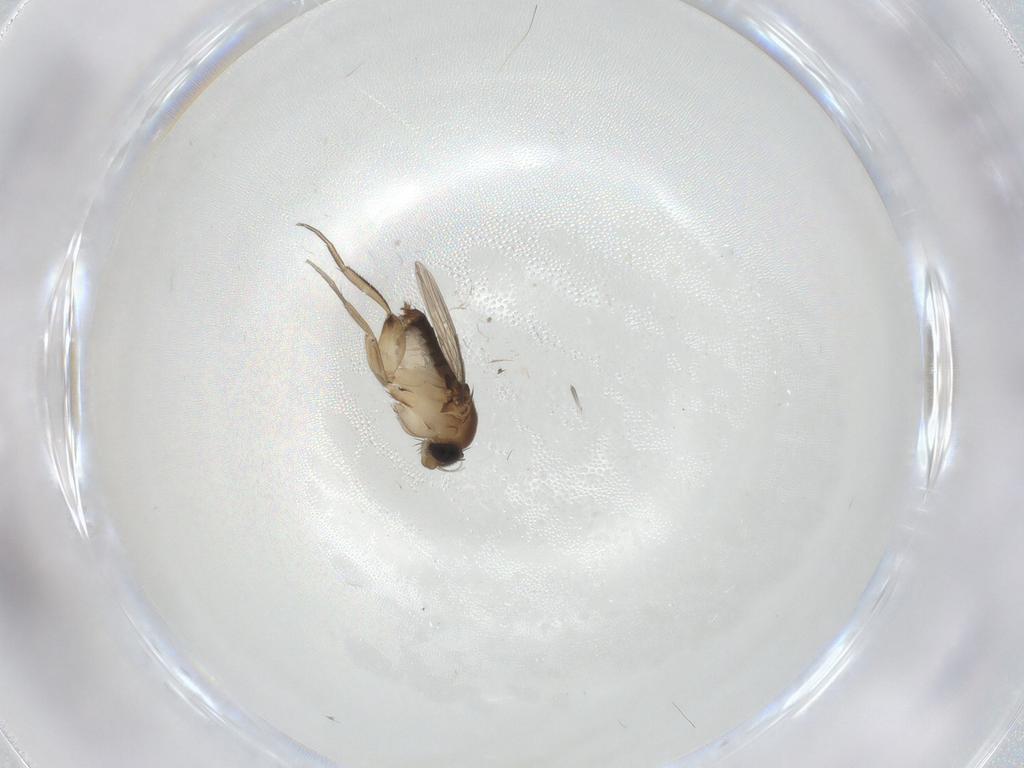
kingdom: Animalia
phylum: Arthropoda
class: Insecta
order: Diptera
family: Phoridae
